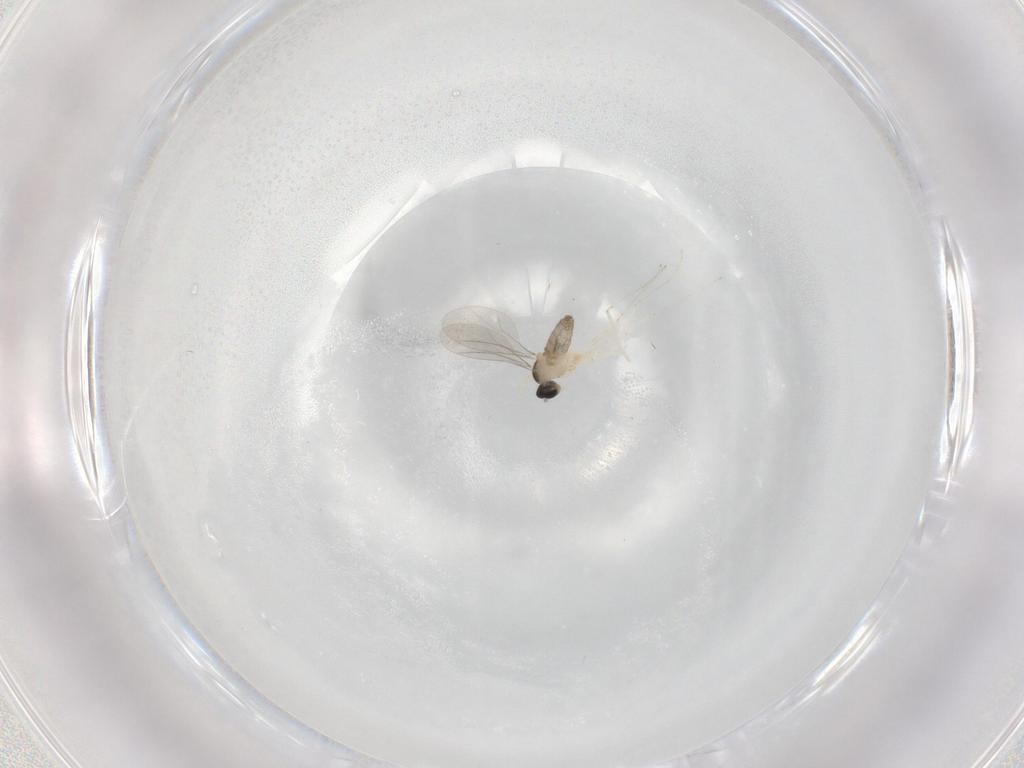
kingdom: Animalia
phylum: Arthropoda
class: Insecta
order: Diptera
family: Cecidomyiidae
